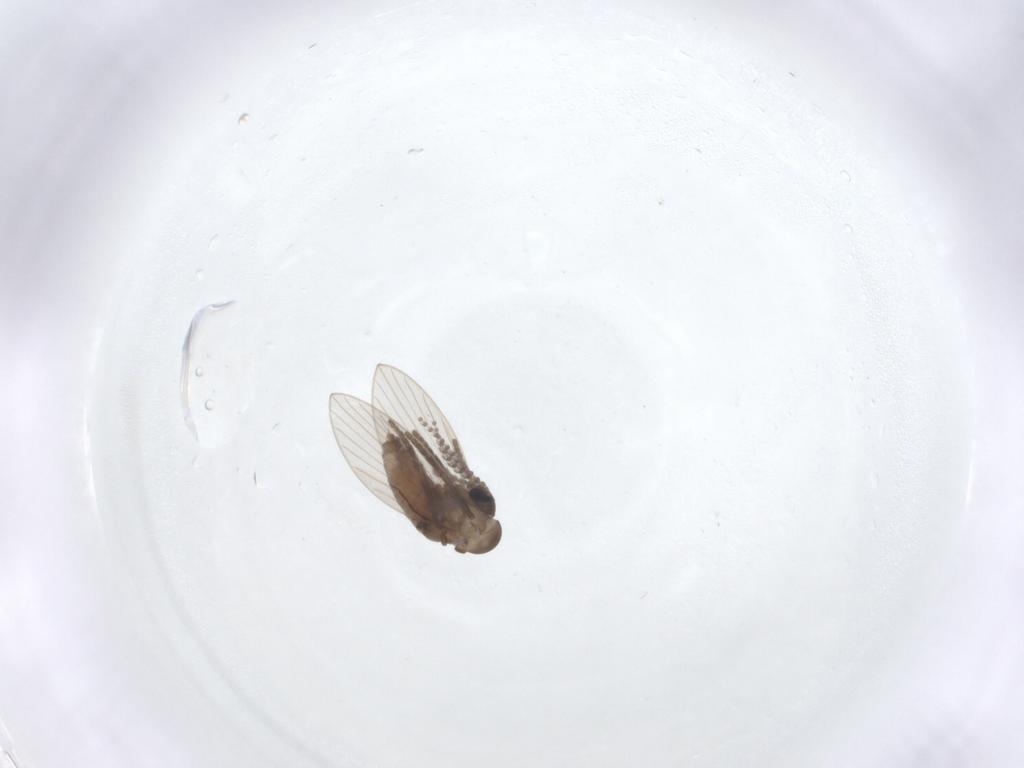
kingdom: Animalia
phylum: Arthropoda
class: Insecta
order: Diptera
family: Psychodidae
